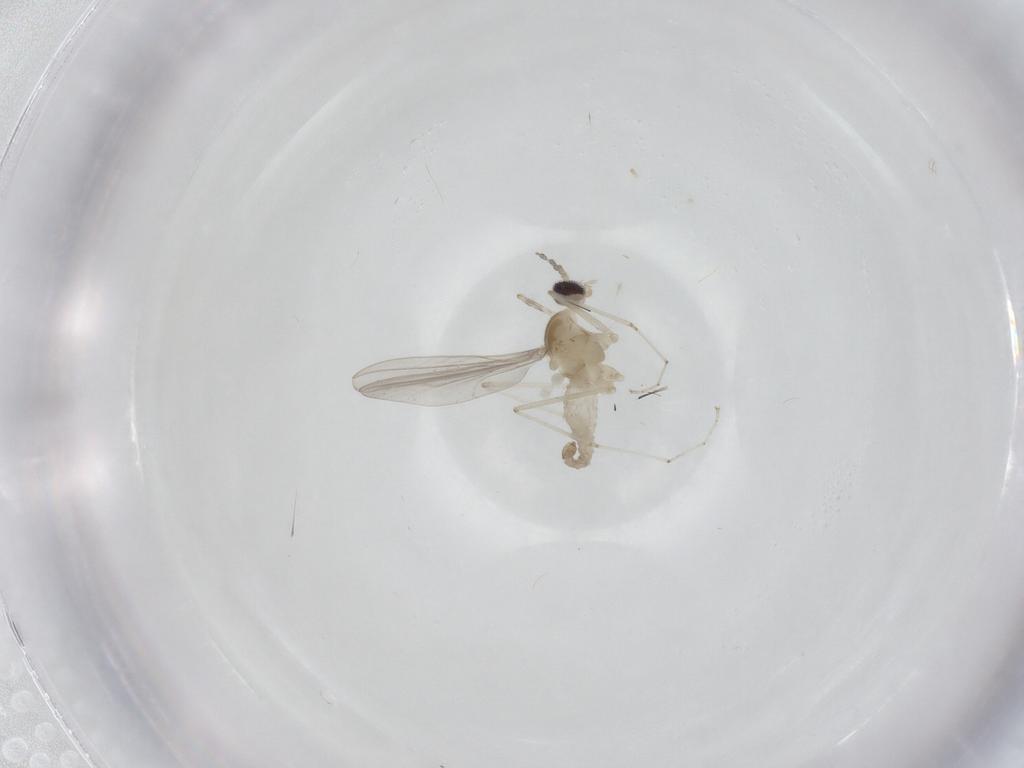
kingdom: Animalia
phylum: Arthropoda
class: Insecta
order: Diptera
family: Cecidomyiidae
